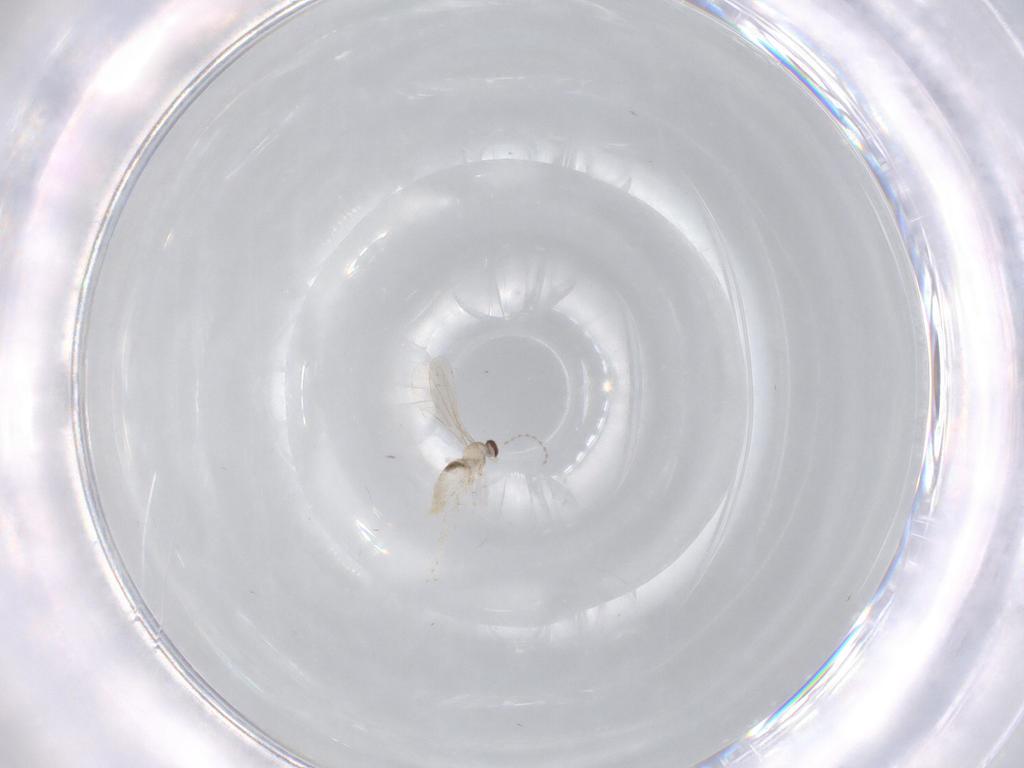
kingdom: Animalia
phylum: Arthropoda
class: Insecta
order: Diptera
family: Cecidomyiidae
